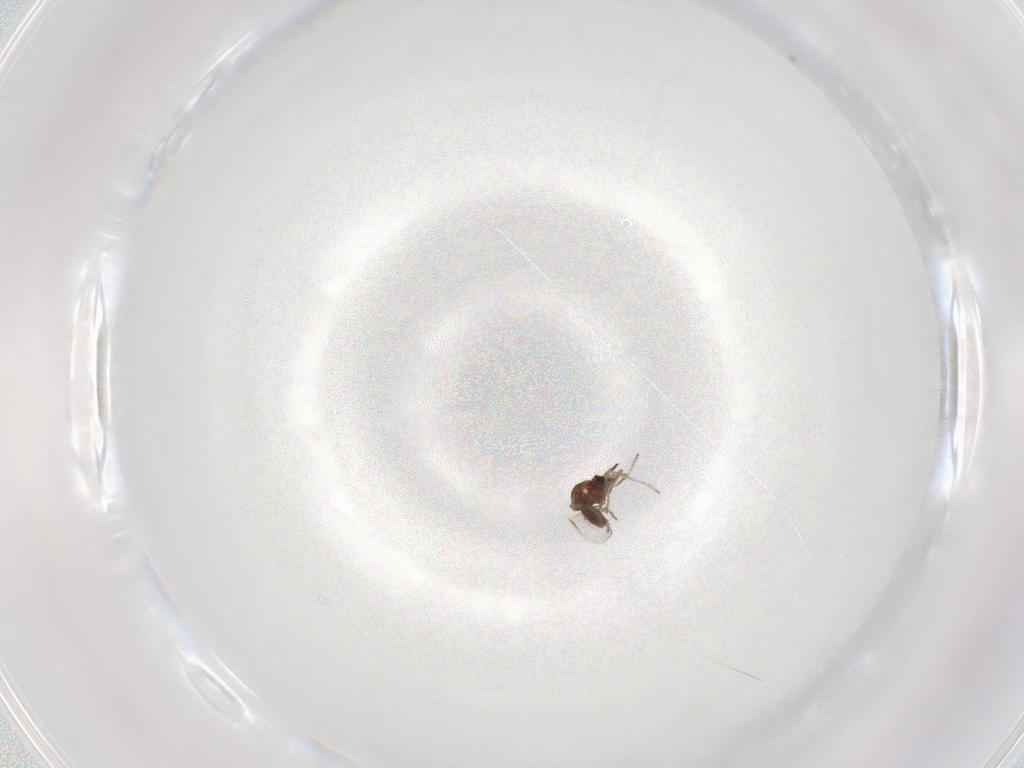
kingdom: Animalia
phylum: Arthropoda
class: Insecta
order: Diptera
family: Ceratopogonidae
